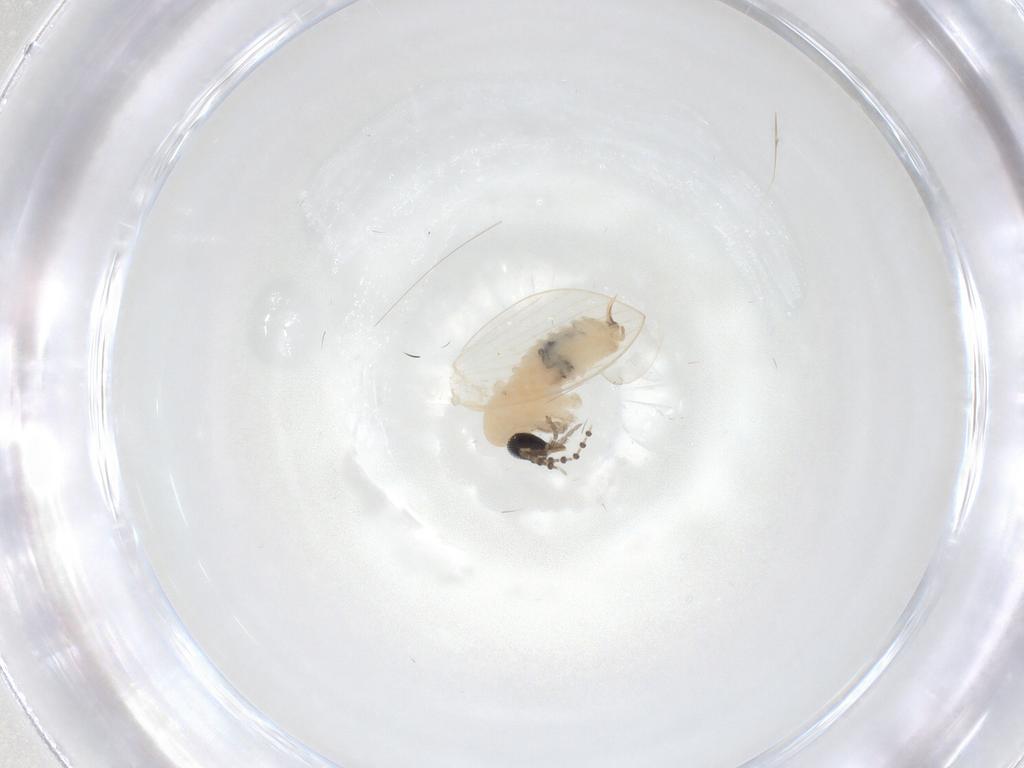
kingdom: Animalia
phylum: Arthropoda
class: Insecta
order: Diptera
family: Psychodidae
